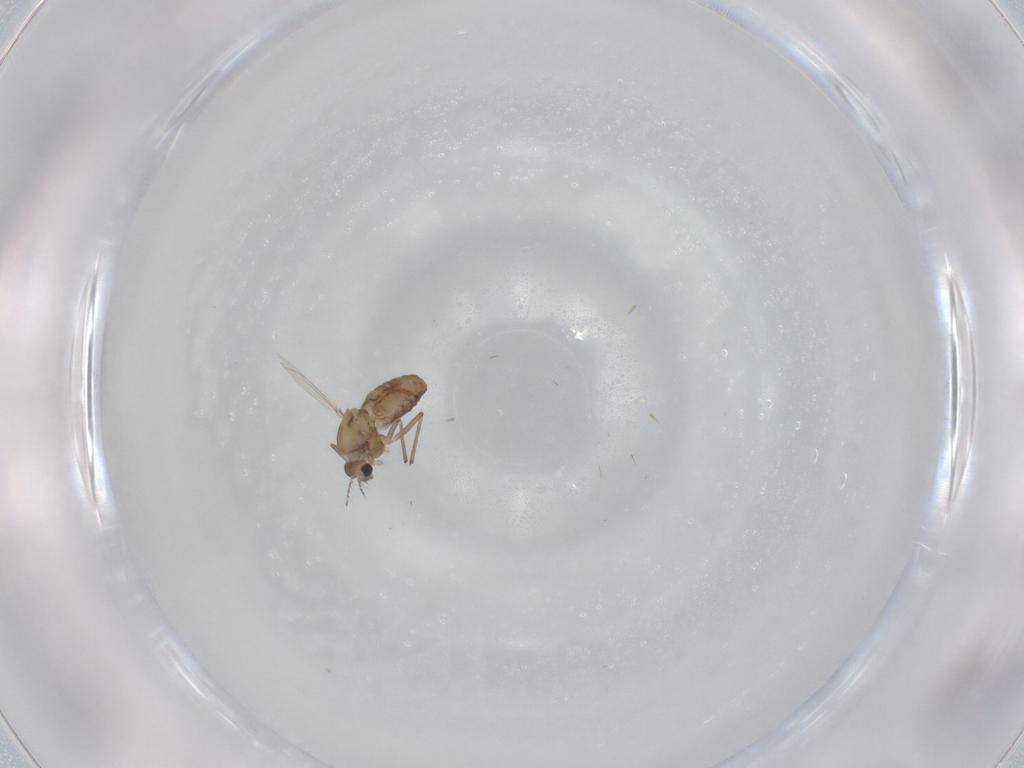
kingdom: Animalia
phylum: Arthropoda
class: Insecta
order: Diptera
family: Chironomidae
